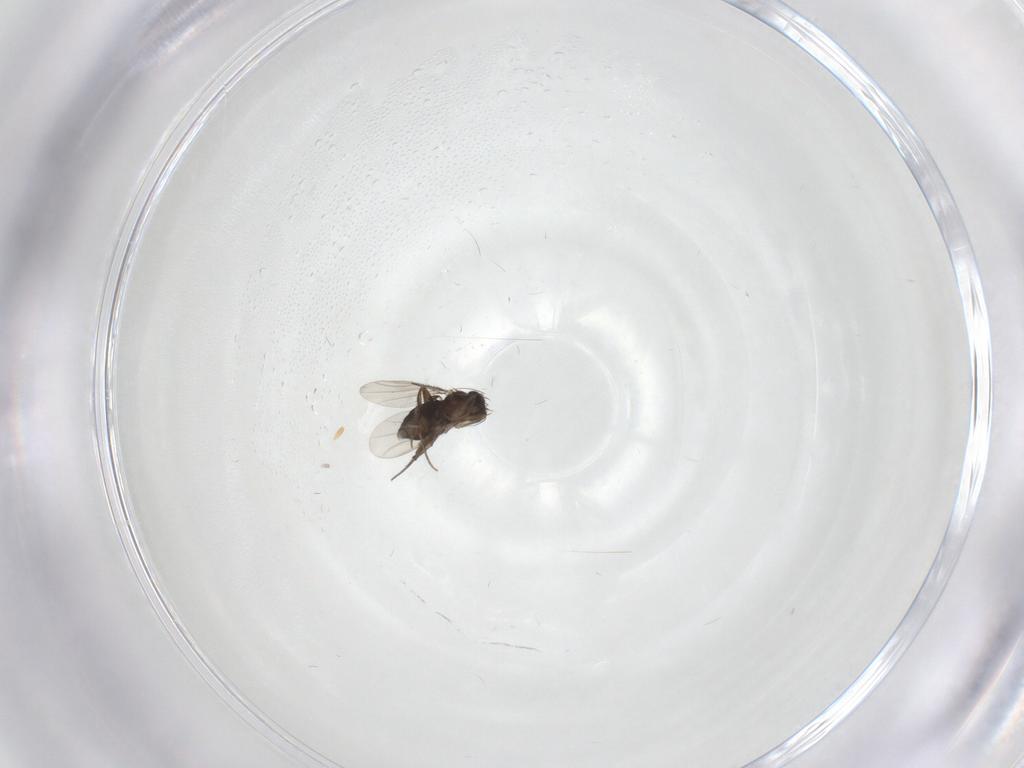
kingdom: Animalia
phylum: Arthropoda
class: Insecta
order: Diptera
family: Phoridae
